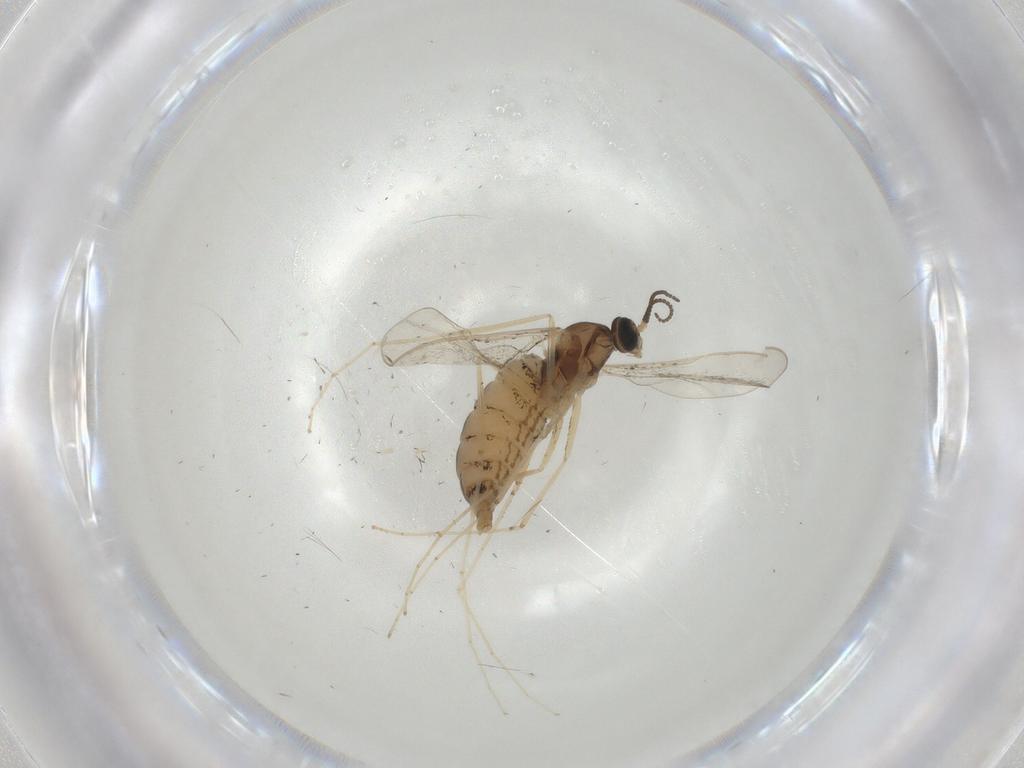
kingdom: Animalia
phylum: Arthropoda
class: Insecta
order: Diptera
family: Cecidomyiidae
